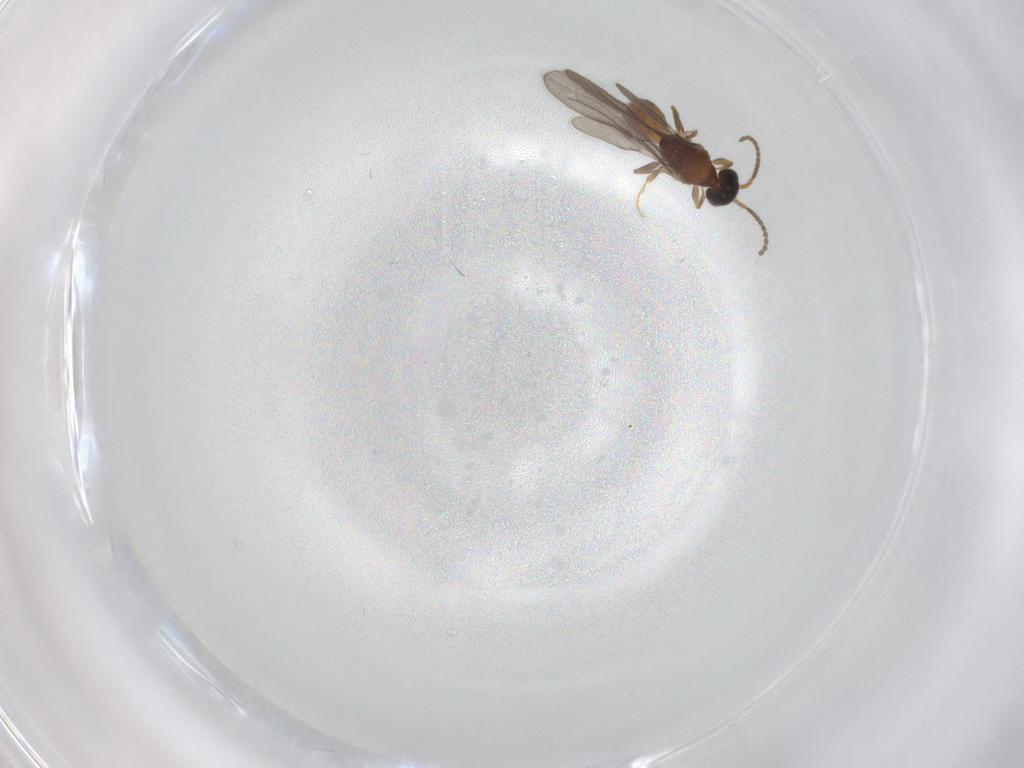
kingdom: Animalia
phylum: Arthropoda
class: Insecta
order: Hymenoptera
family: Bethylidae
